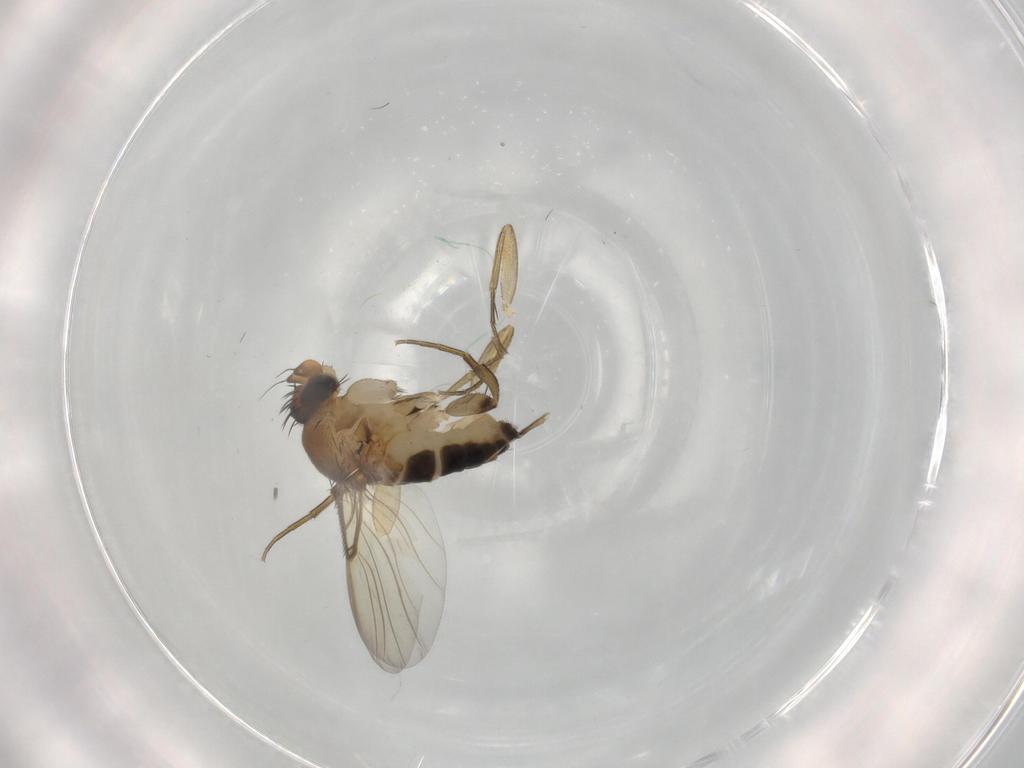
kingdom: Animalia
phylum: Arthropoda
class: Insecta
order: Diptera
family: Phoridae
